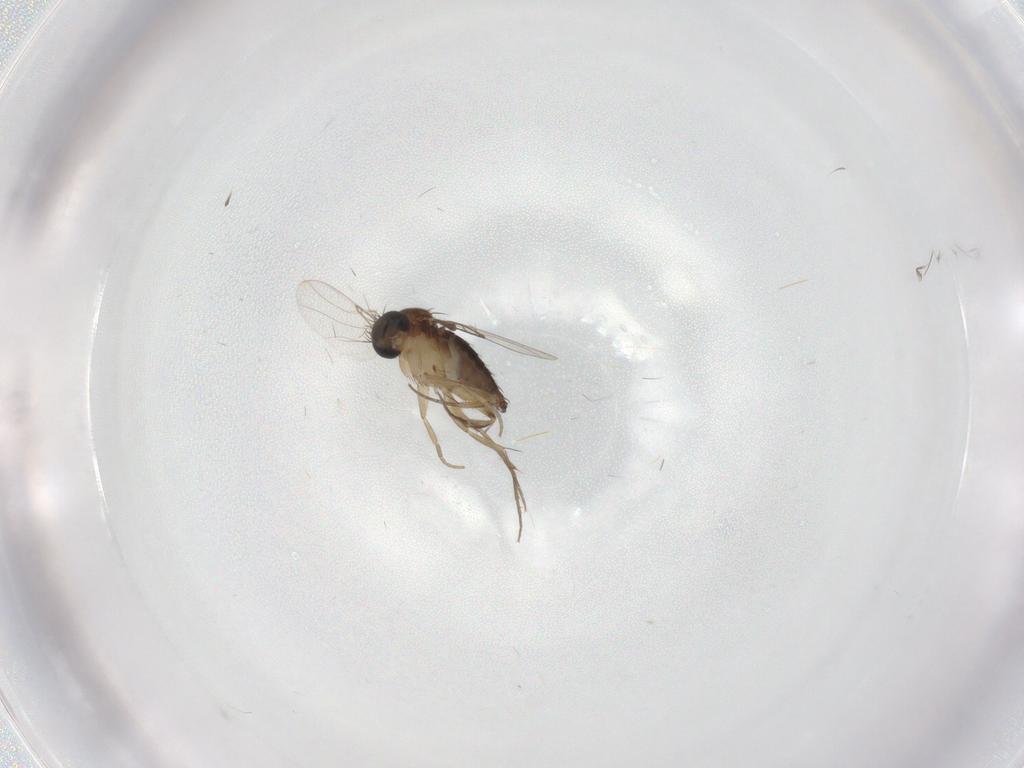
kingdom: Animalia
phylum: Arthropoda
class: Insecta
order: Diptera
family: Phoridae
